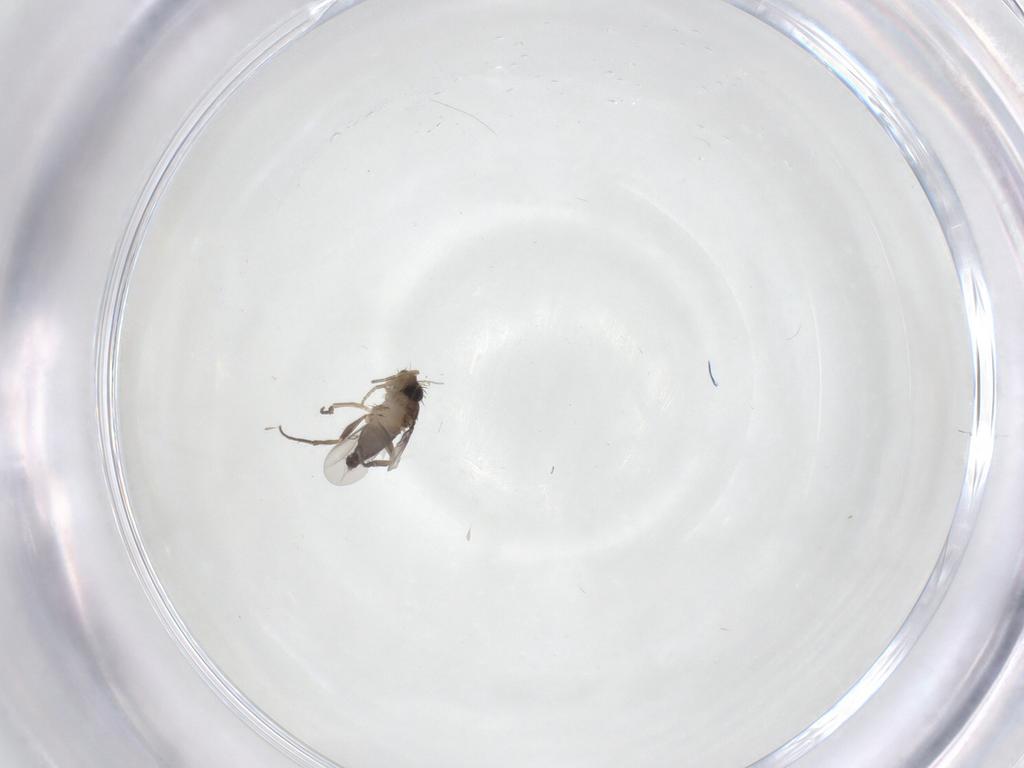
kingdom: Animalia
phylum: Arthropoda
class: Insecta
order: Diptera
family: Phoridae
